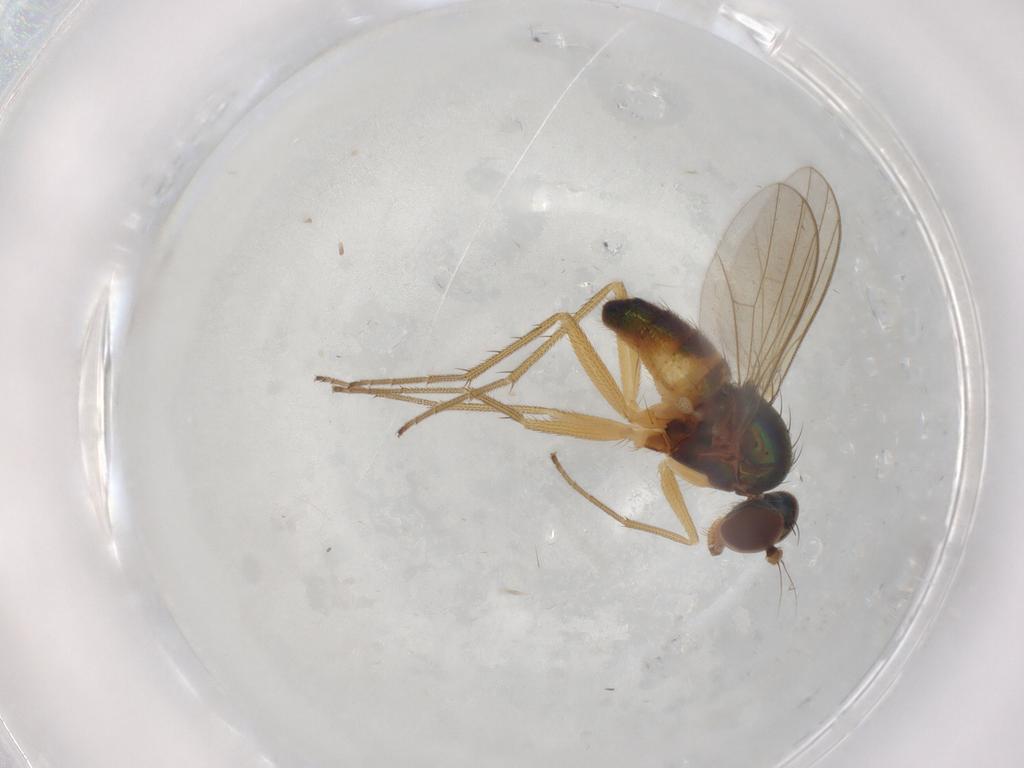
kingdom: Animalia
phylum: Arthropoda
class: Insecta
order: Diptera
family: Dolichopodidae
